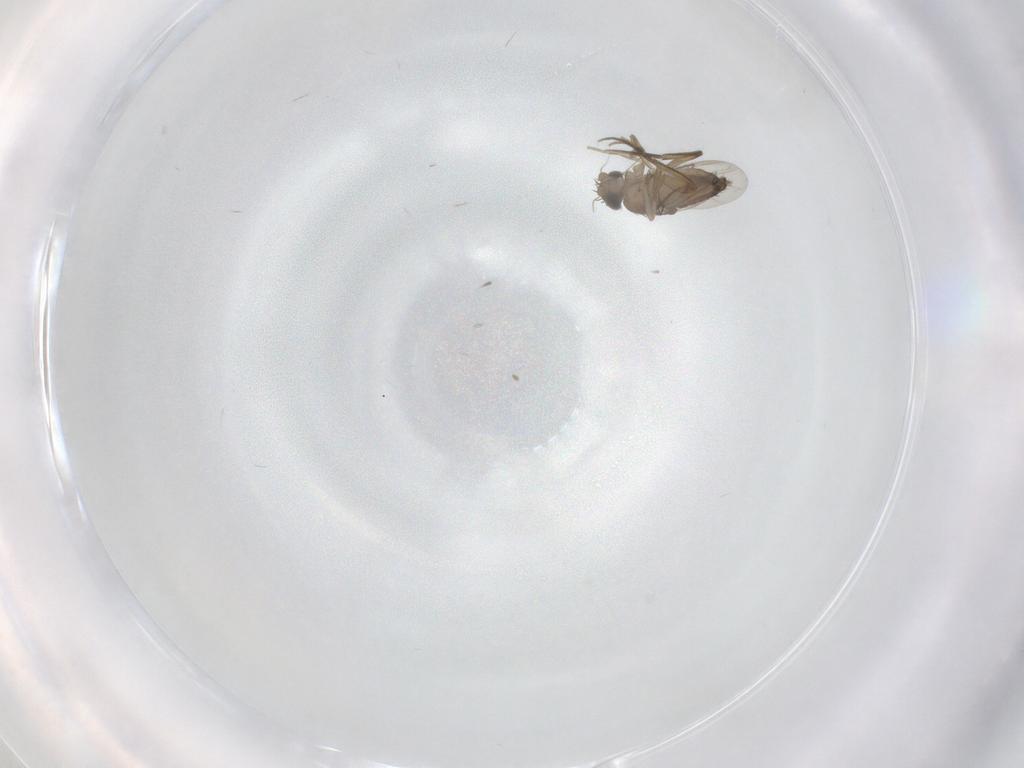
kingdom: Animalia
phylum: Arthropoda
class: Insecta
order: Diptera
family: Phoridae
